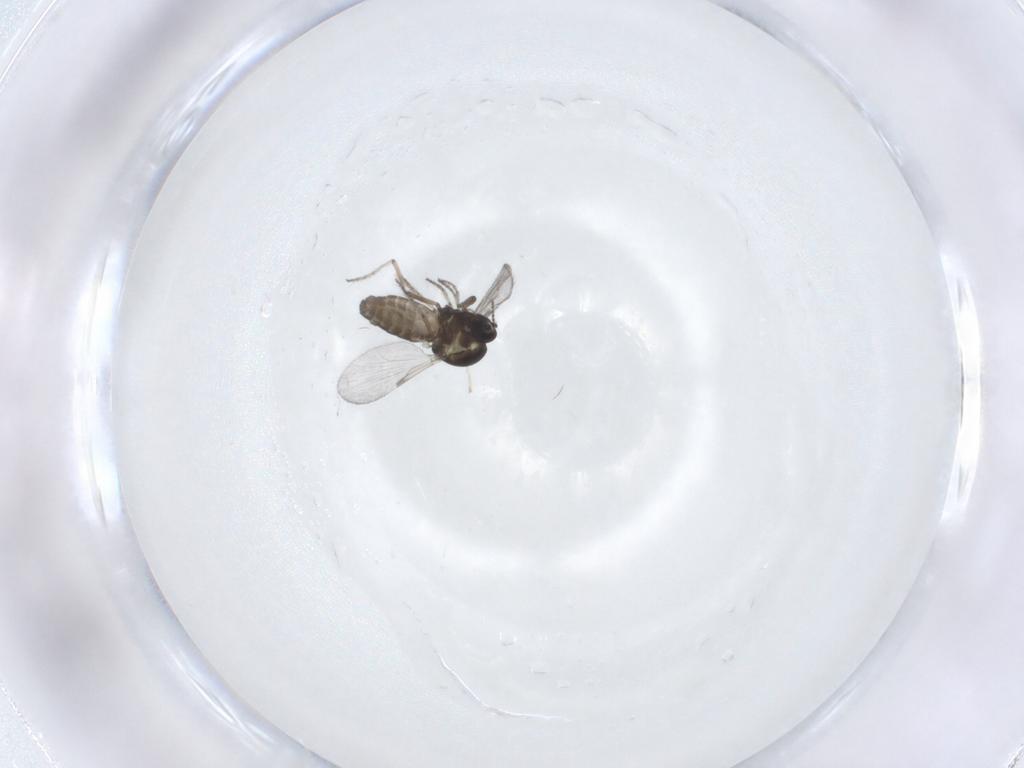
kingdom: Animalia
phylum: Arthropoda
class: Insecta
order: Diptera
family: Ceratopogonidae
